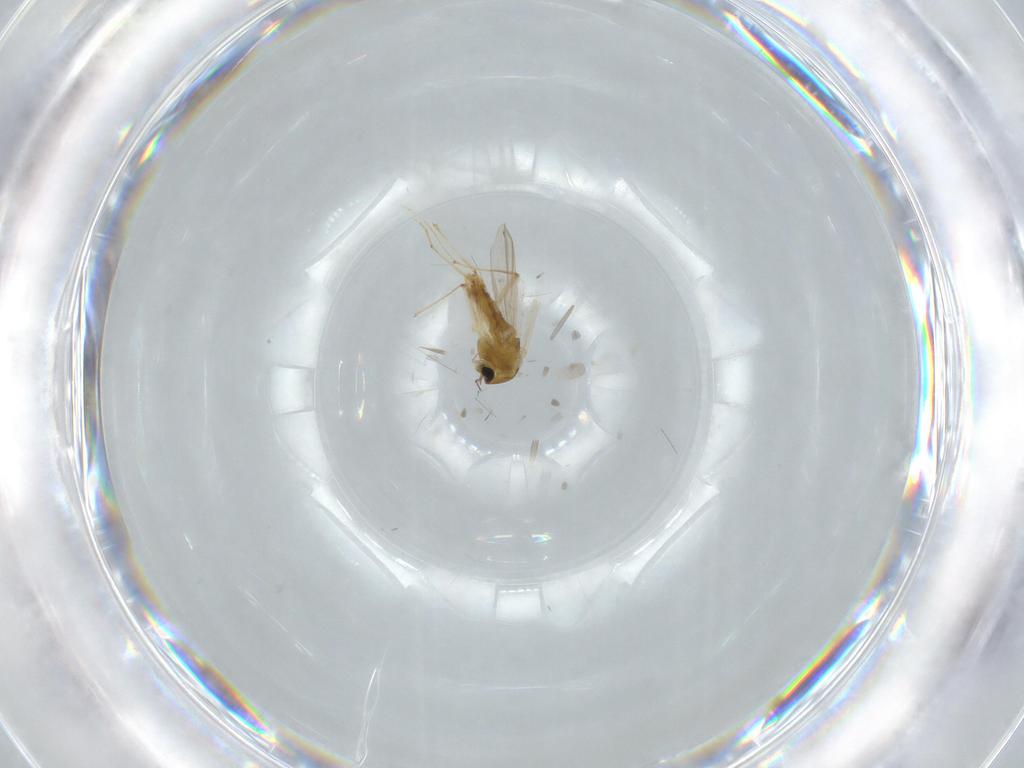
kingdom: Animalia
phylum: Arthropoda
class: Insecta
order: Diptera
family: Chironomidae
